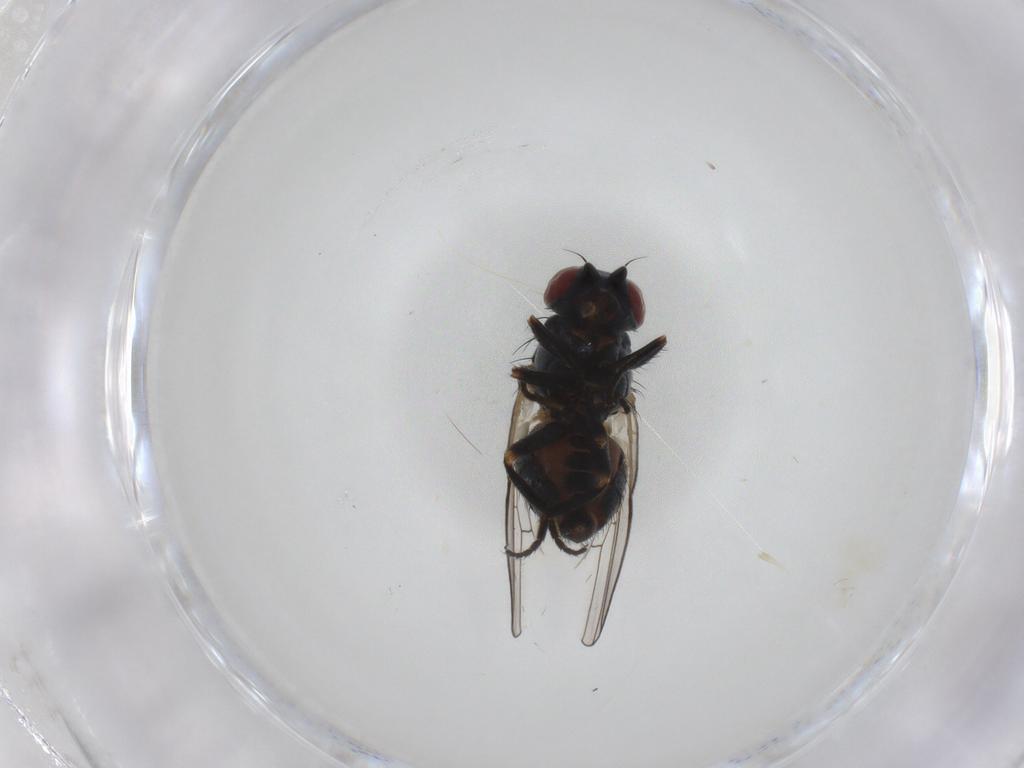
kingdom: Animalia
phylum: Arthropoda
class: Insecta
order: Diptera
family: Chamaemyiidae
